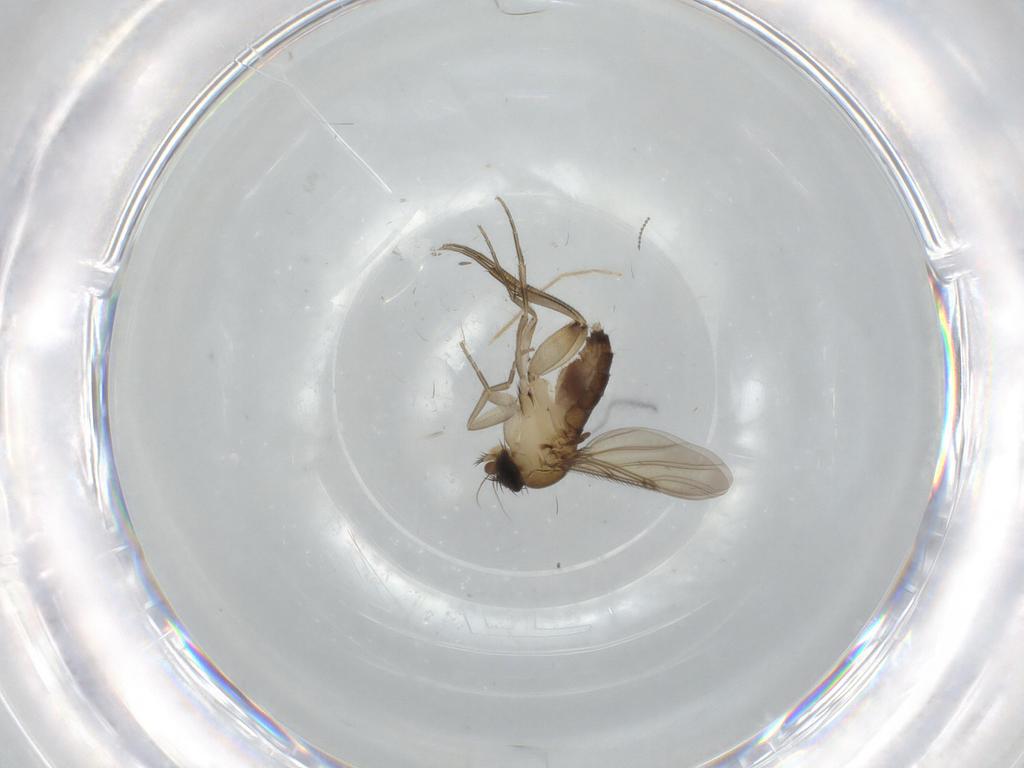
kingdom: Animalia
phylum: Arthropoda
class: Insecta
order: Diptera
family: Phoridae
